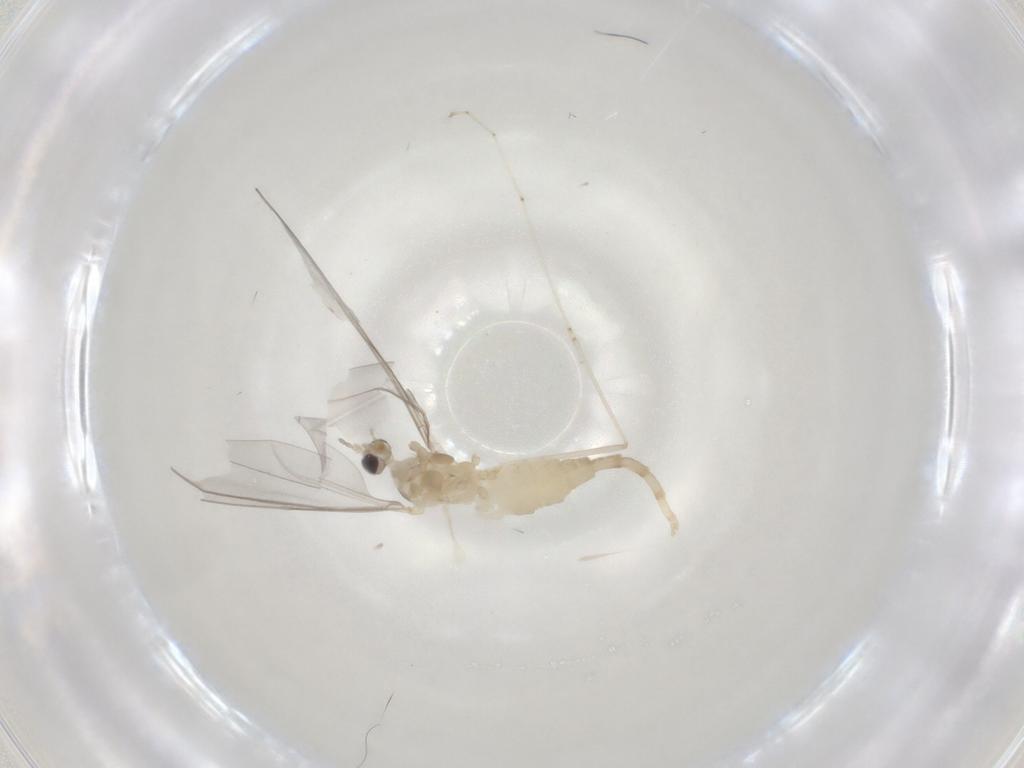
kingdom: Animalia
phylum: Arthropoda
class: Insecta
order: Diptera
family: Cecidomyiidae
